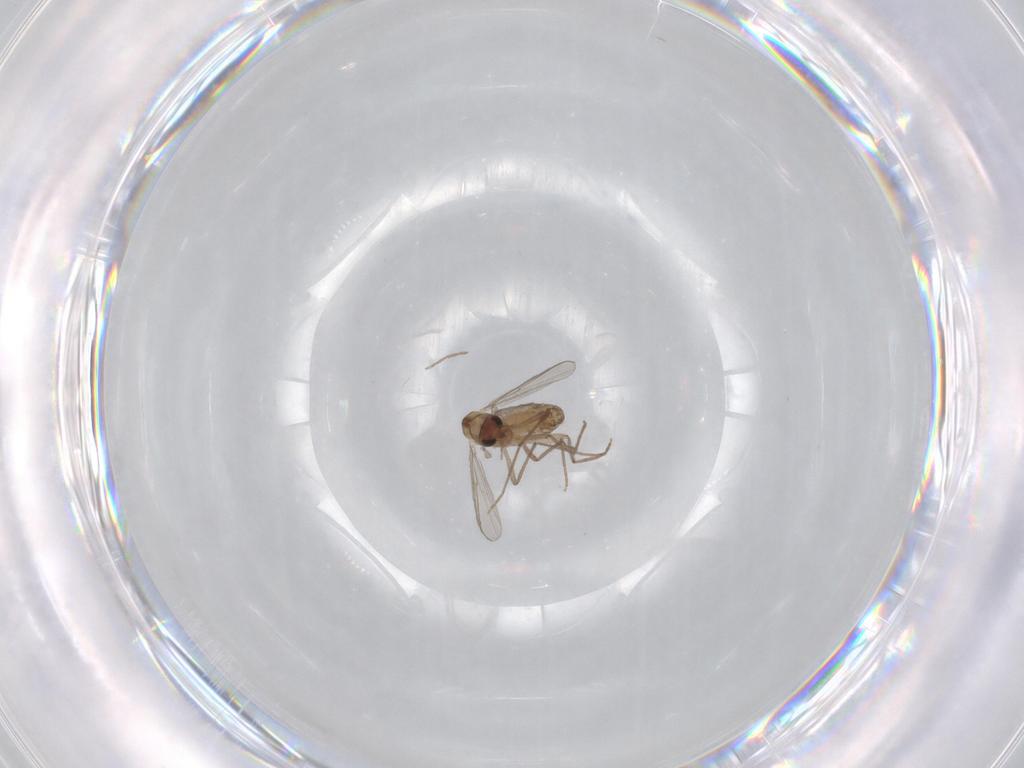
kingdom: Animalia
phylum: Arthropoda
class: Insecta
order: Diptera
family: Chironomidae
